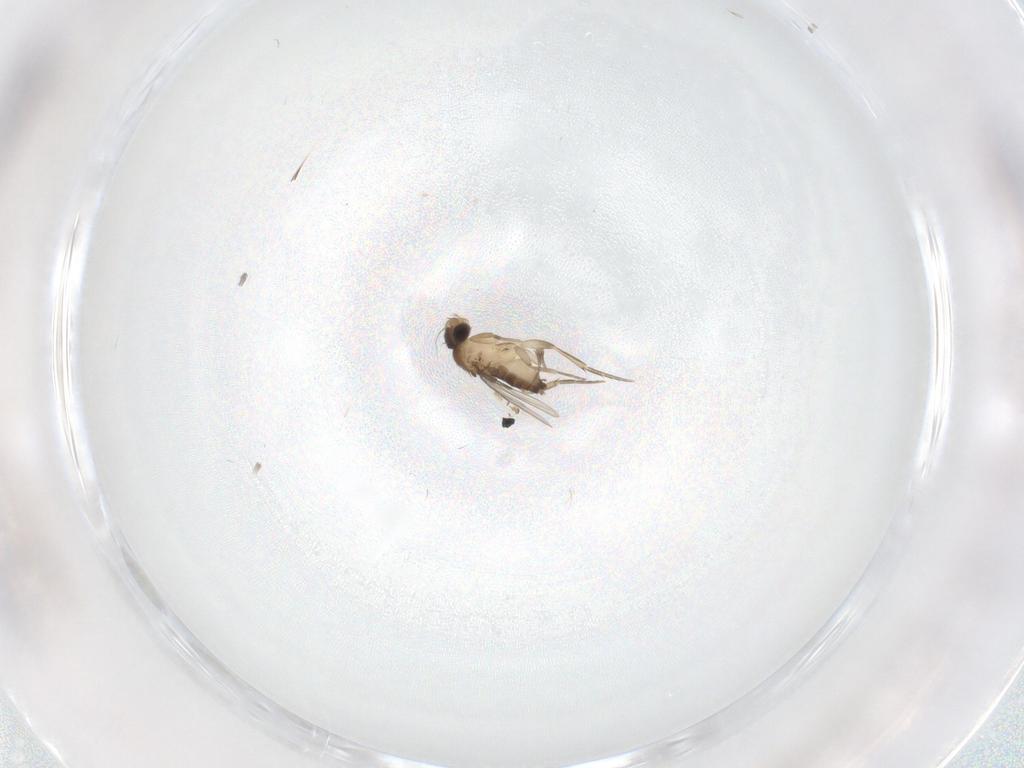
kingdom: Animalia
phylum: Arthropoda
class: Insecta
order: Diptera
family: Phoridae
